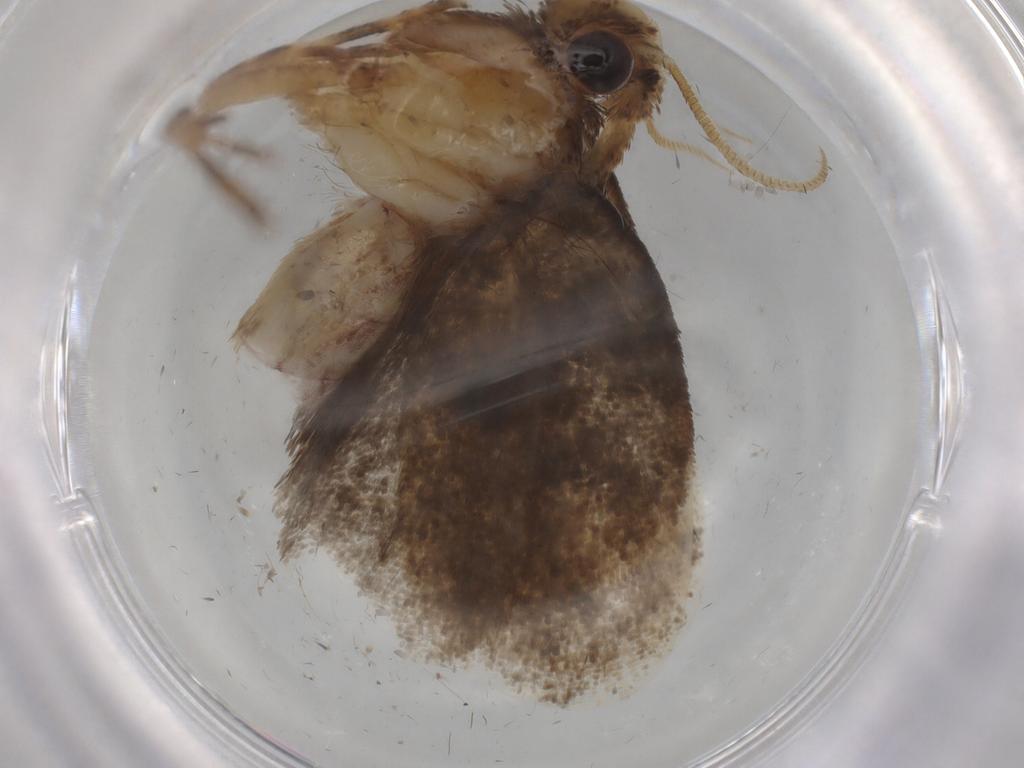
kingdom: Animalia
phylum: Arthropoda
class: Insecta
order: Lepidoptera
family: Tineidae
